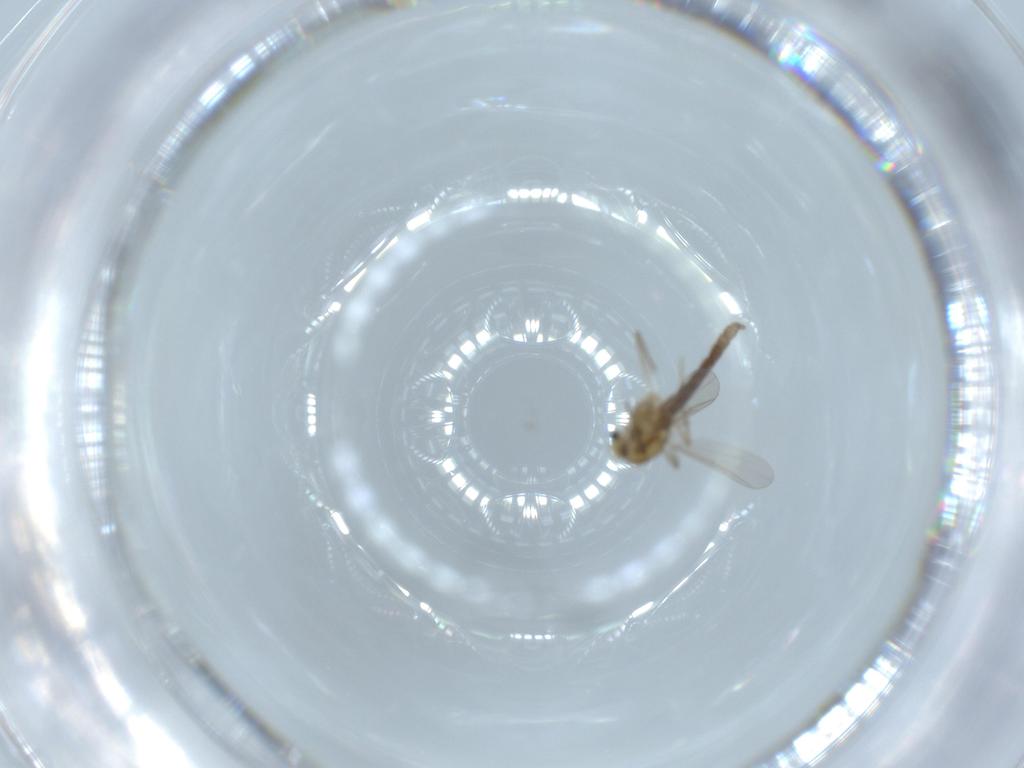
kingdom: Animalia
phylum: Arthropoda
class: Insecta
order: Diptera
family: Chironomidae
